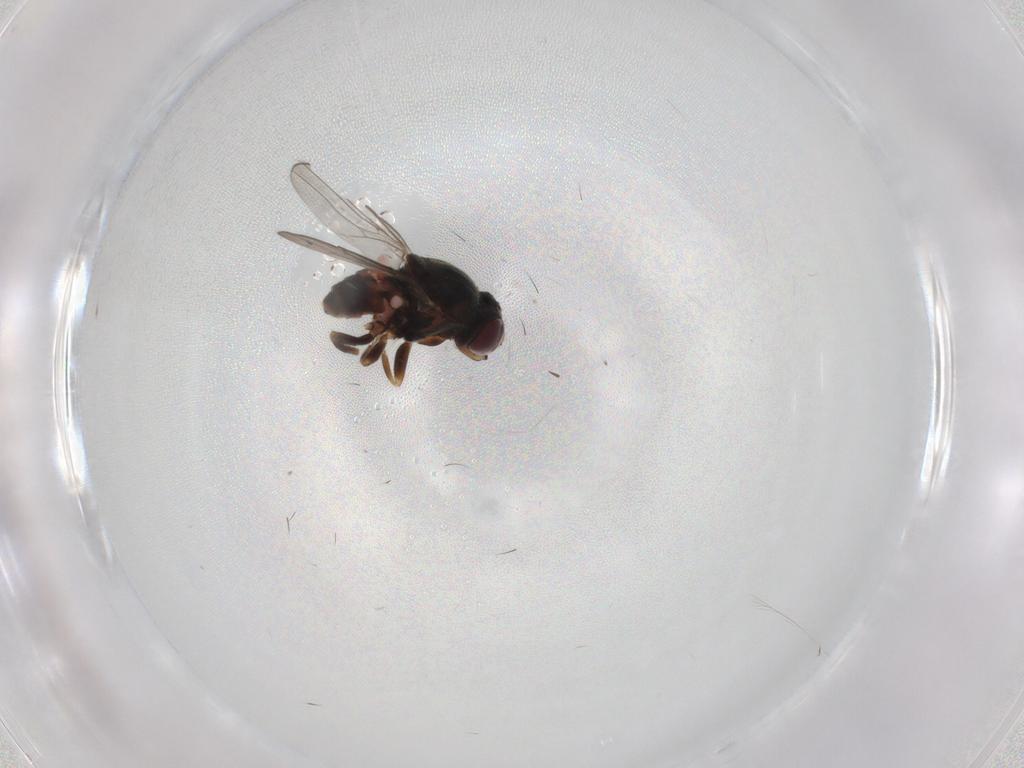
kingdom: Animalia
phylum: Arthropoda
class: Insecta
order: Diptera
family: Chloropidae
